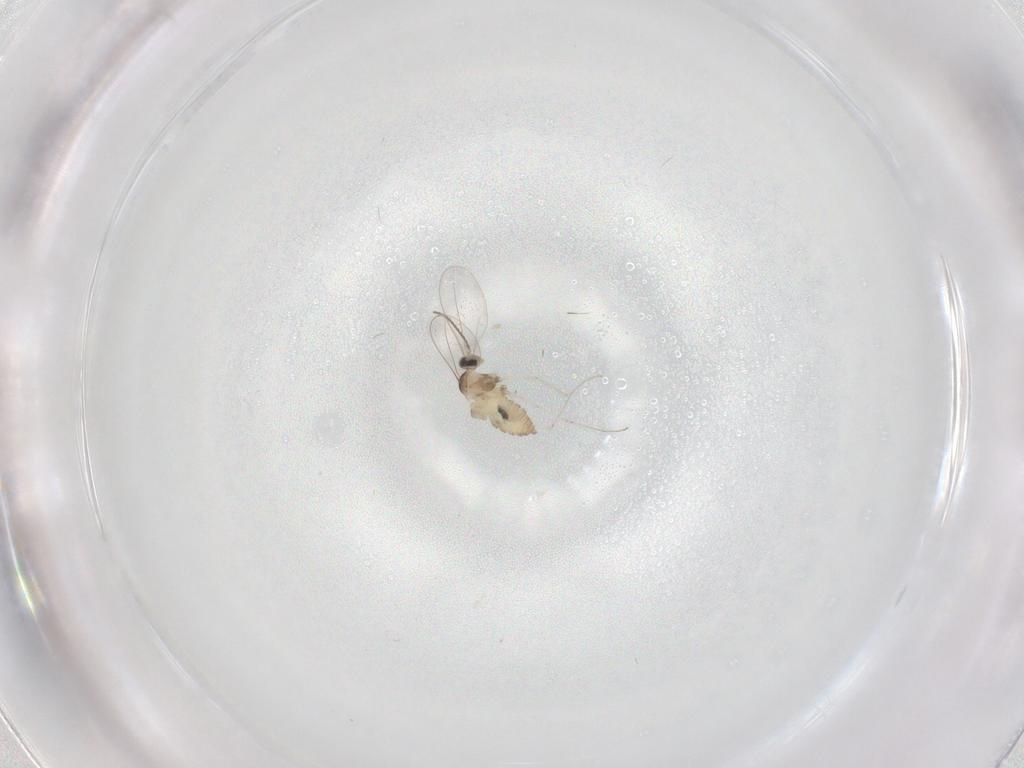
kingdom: Animalia
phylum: Arthropoda
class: Insecta
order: Diptera
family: Cecidomyiidae
